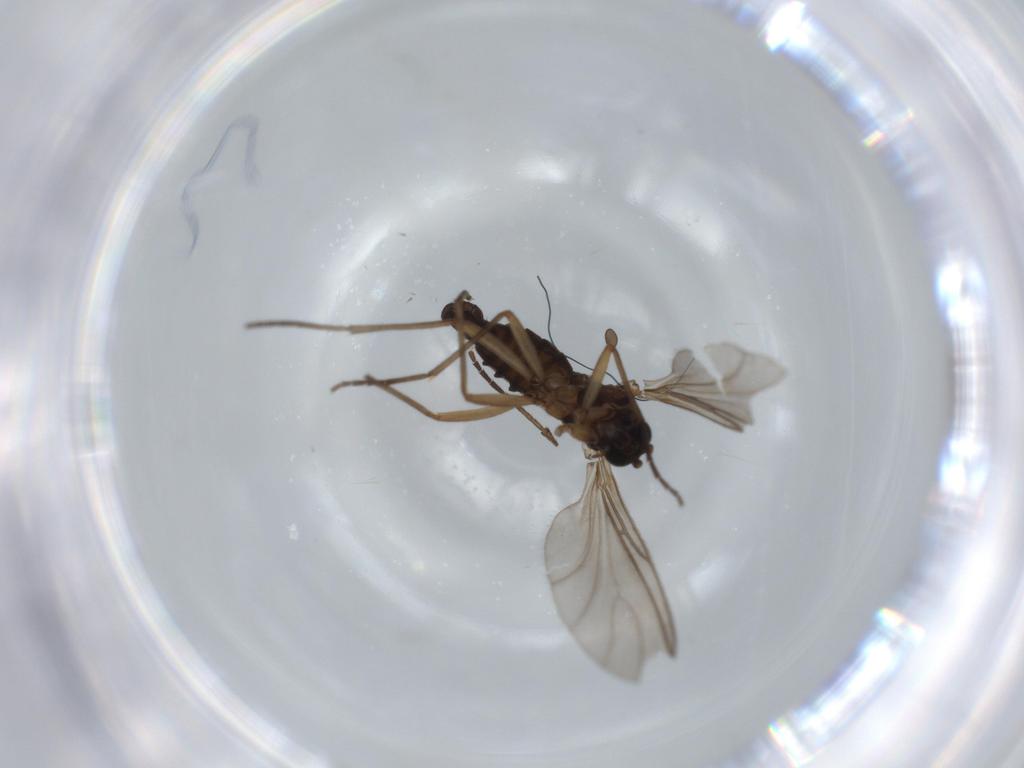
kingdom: Animalia
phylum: Arthropoda
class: Insecta
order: Diptera
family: Sciaridae
